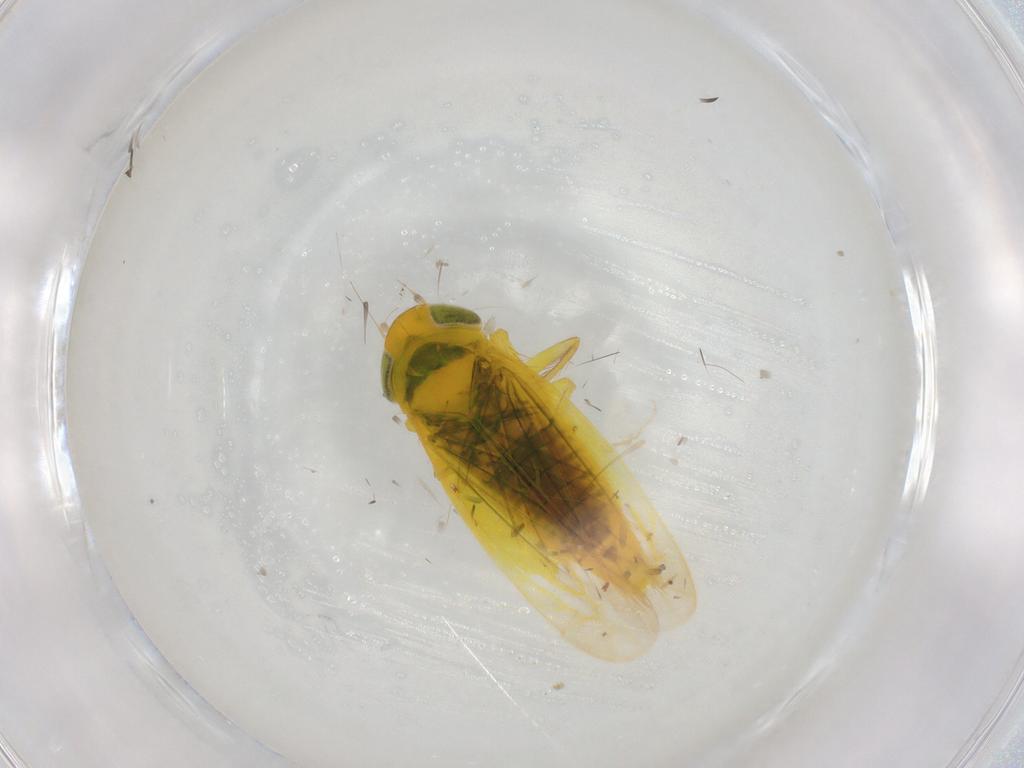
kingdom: Animalia
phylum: Arthropoda
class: Insecta
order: Hemiptera
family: Cicadellidae
